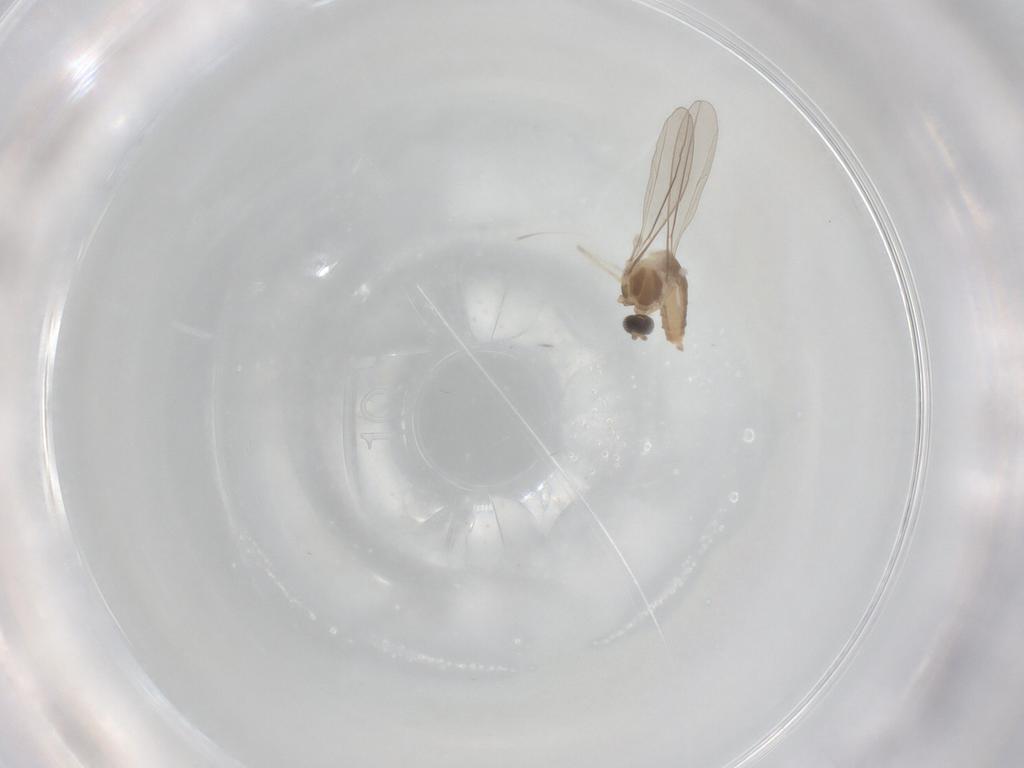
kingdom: Animalia
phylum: Arthropoda
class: Insecta
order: Diptera
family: Cecidomyiidae
